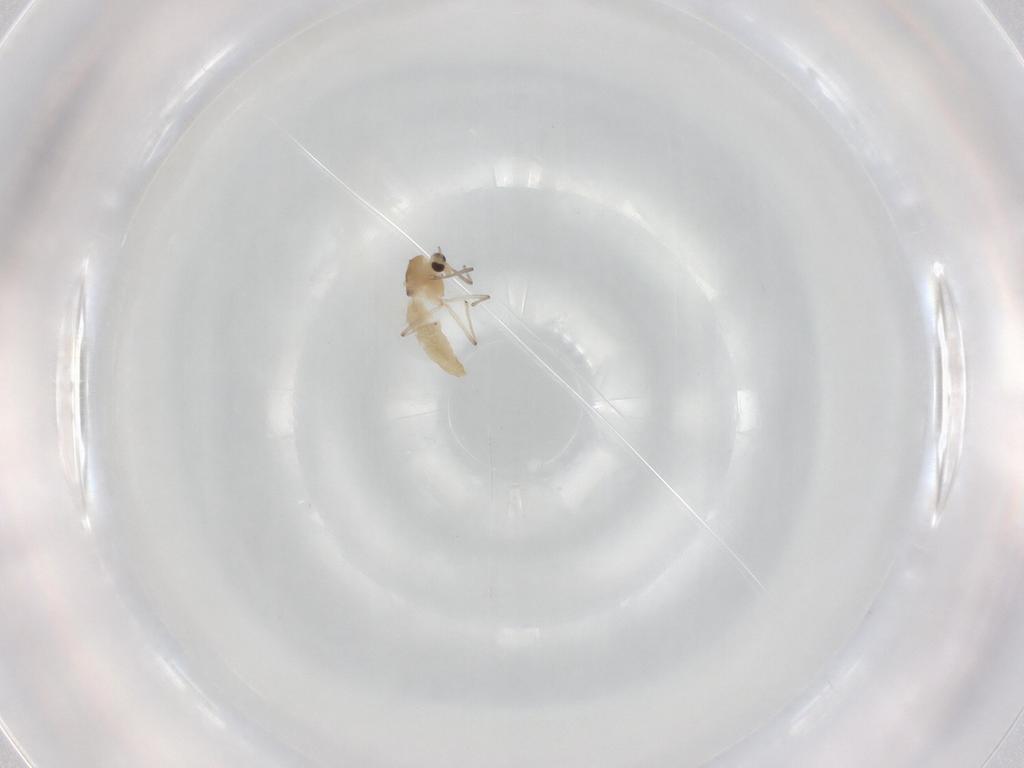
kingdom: Animalia
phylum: Arthropoda
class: Insecta
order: Diptera
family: Chironomidae
